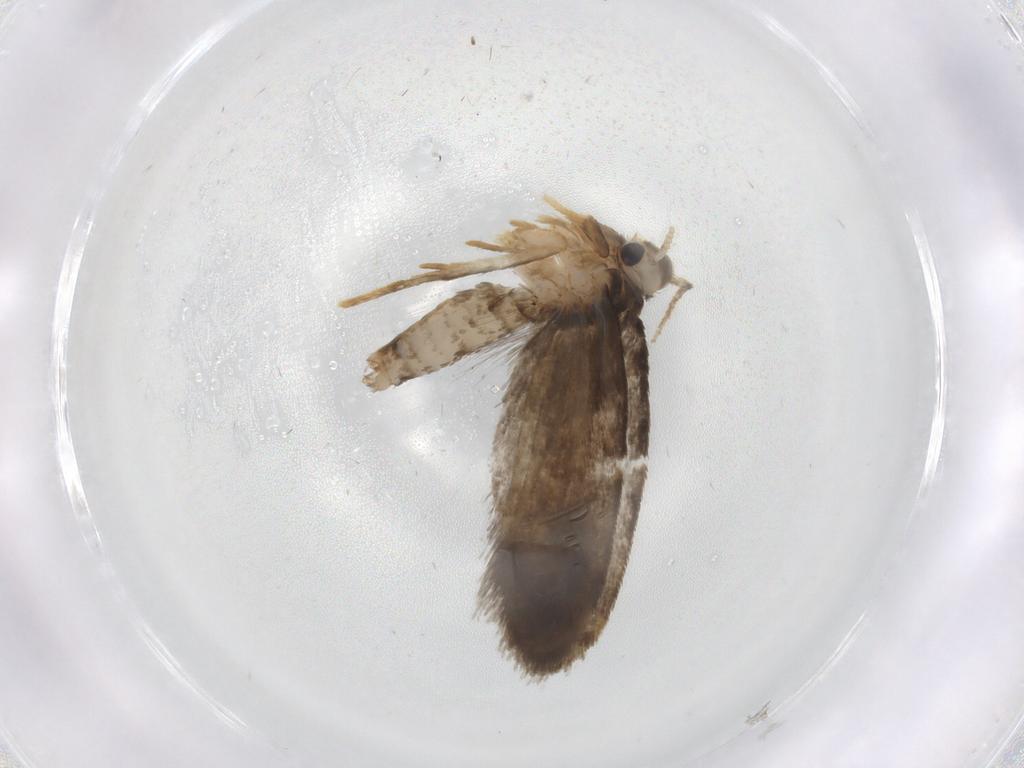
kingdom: Animalia
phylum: Arthropoda
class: Insecta
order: Lepidoptera
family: Psychidae
